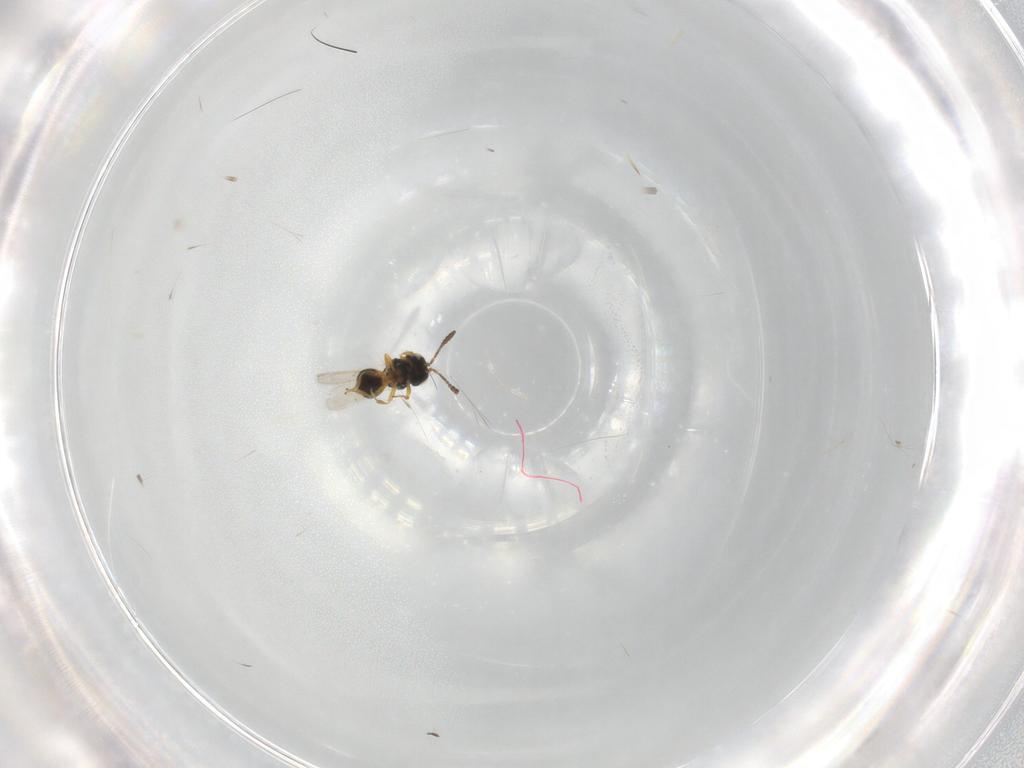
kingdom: Animalia
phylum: Arthropoda
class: Insecta
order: Hymenoptera
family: Scelionidae
